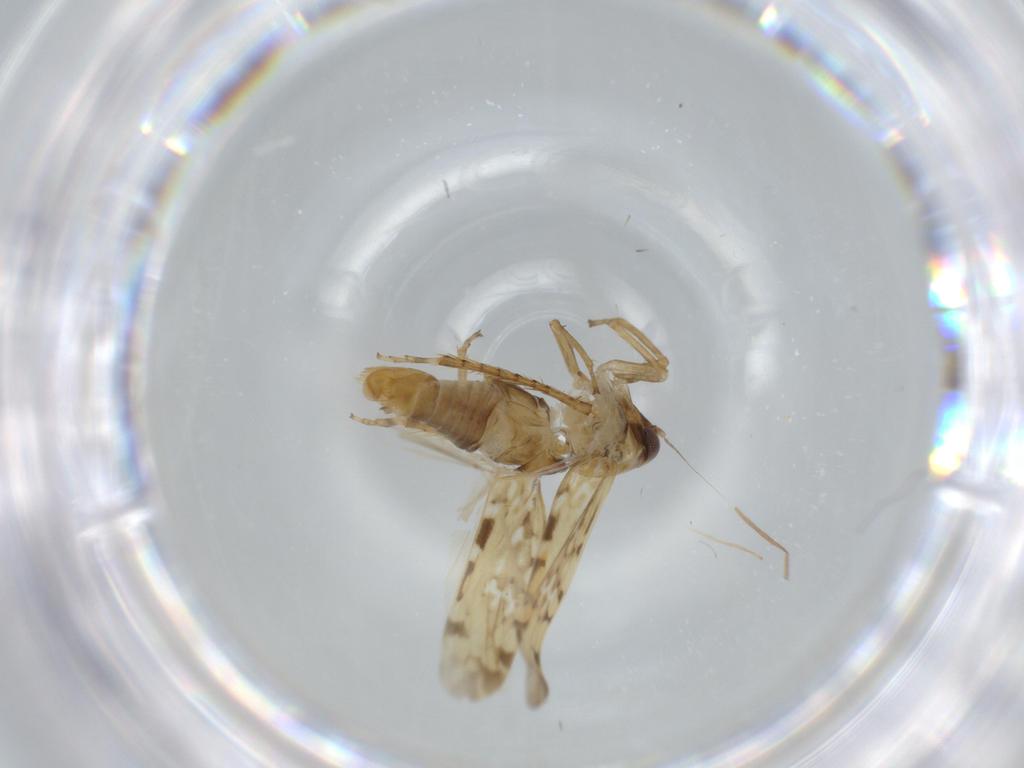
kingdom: Animalia
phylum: Arthropoda
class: Insecta
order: Hemiptera
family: Cicadellidae
